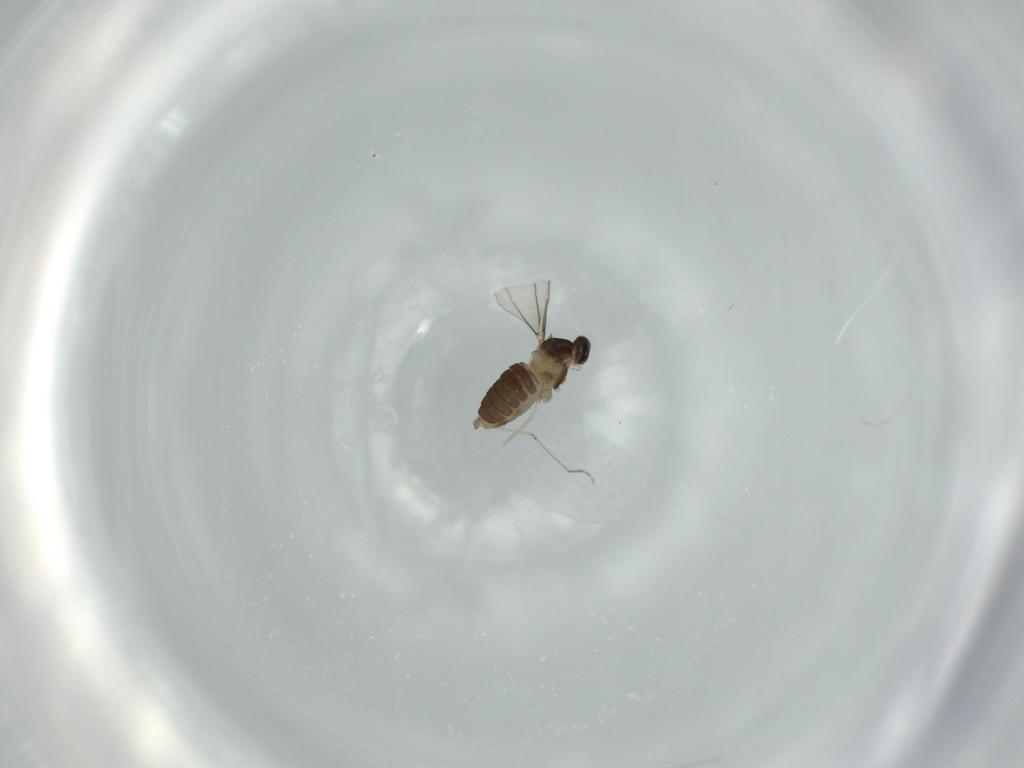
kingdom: Animalia
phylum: Arthropoda
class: Insecta
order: Diptera
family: Cecidomyiidae
